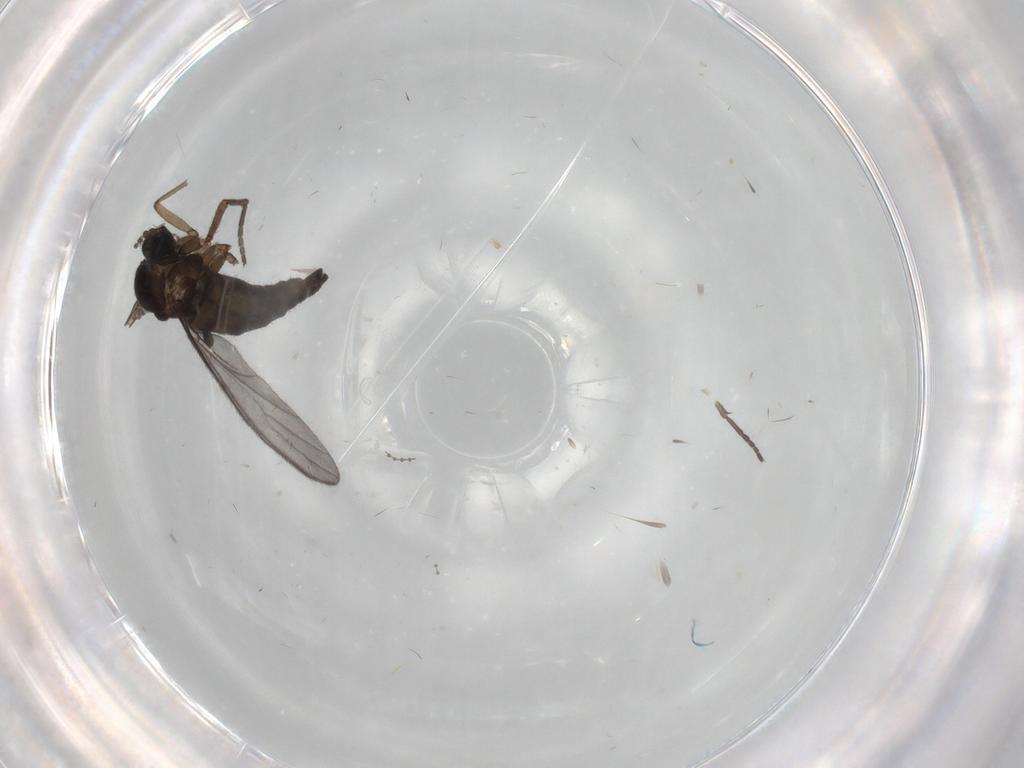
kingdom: Animalia
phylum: Arthropoda
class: Insecta
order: Diptera
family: Sciaridae
